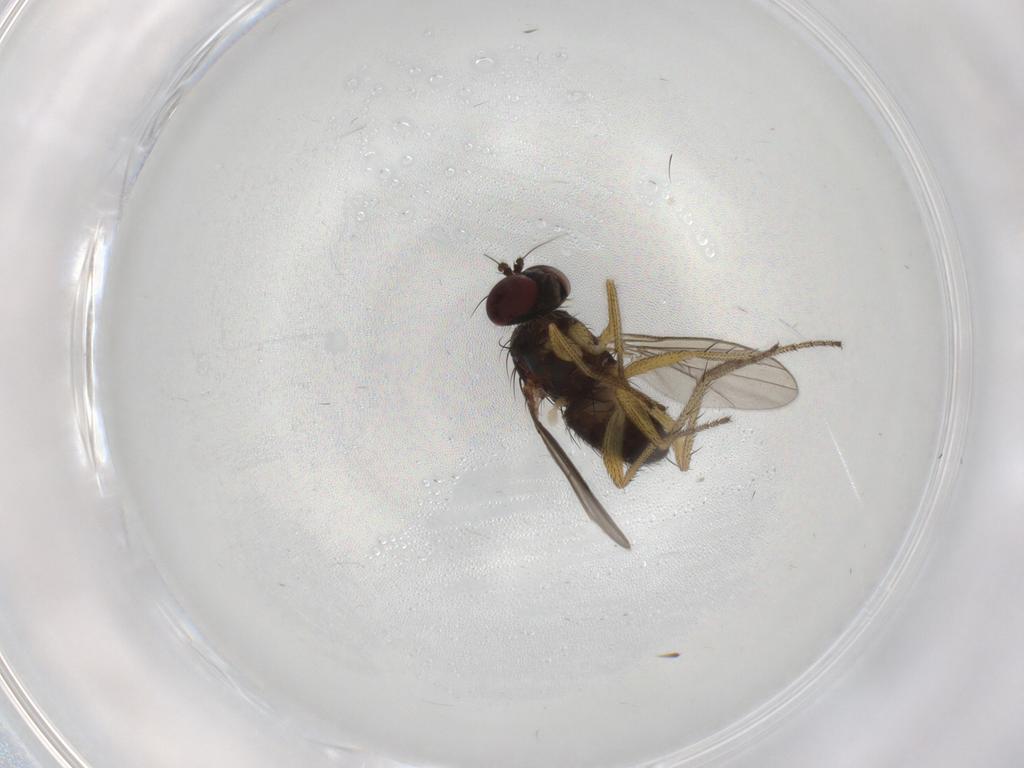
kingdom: Animalia
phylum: Arthropoda
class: Insecta
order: Diptera
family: Dolichopodidae
